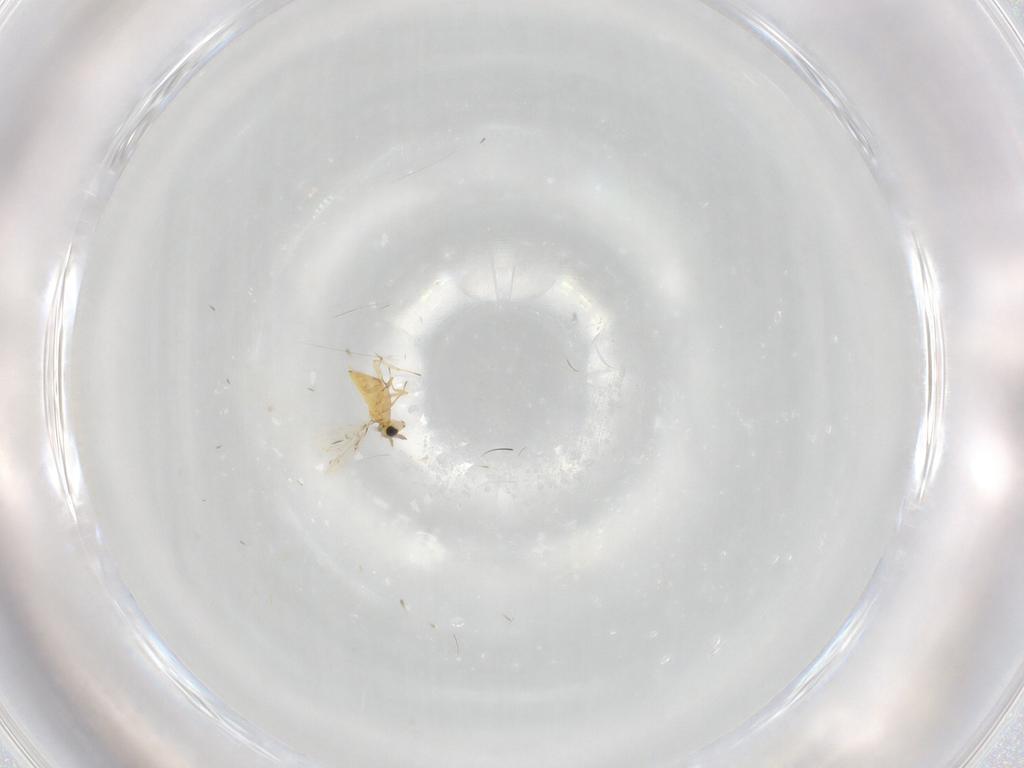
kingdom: Animalia
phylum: Arthropoda
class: Insecta
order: Hymenoptera
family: Trichogrammatidae
